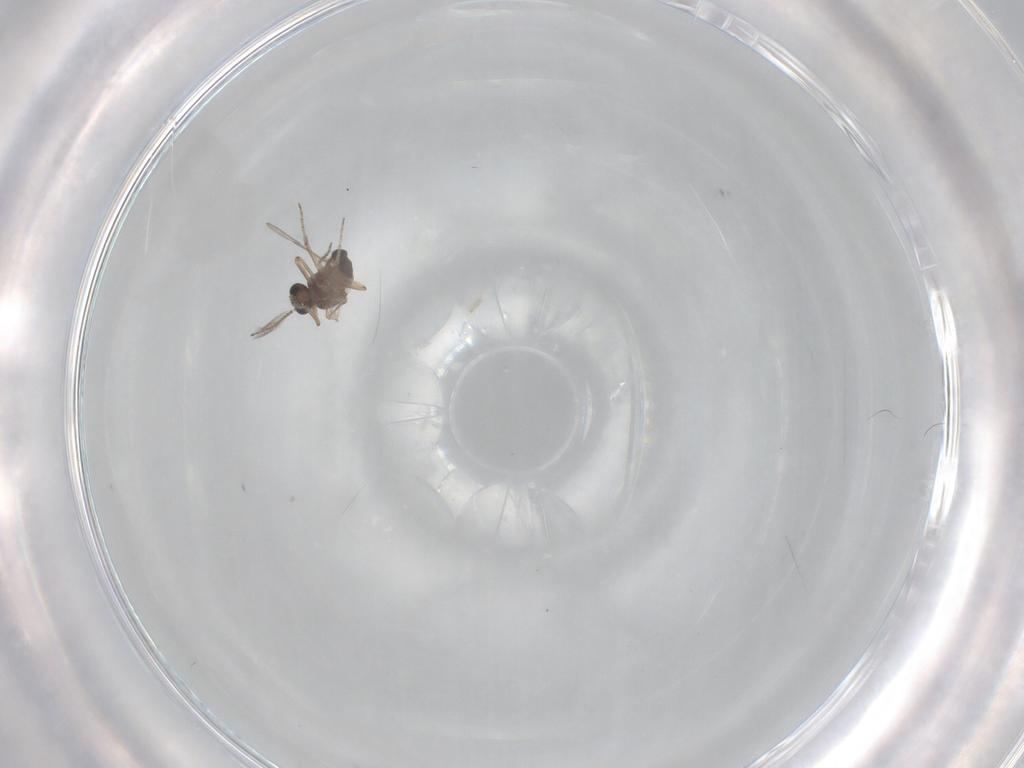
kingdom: Animalia
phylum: Arthropoda
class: Insecta
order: Diptera
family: Ceratopogonidae
